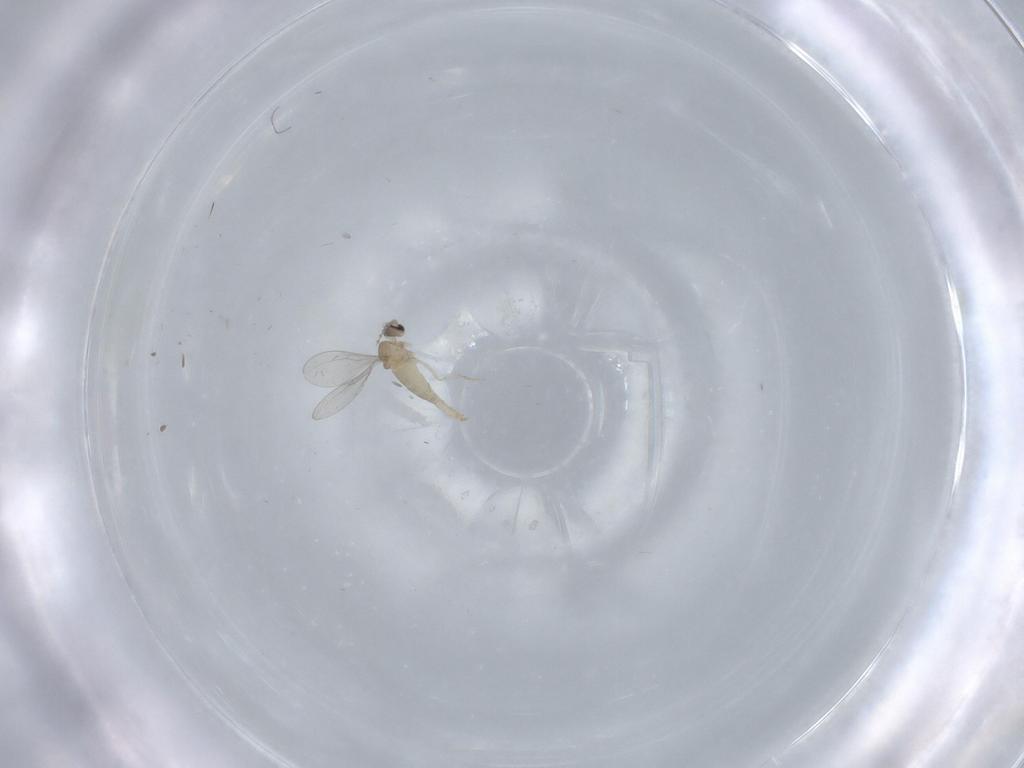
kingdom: Animalia
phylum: Arthropoda
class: Insecta
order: Diptera
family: Cecidomyiidae
